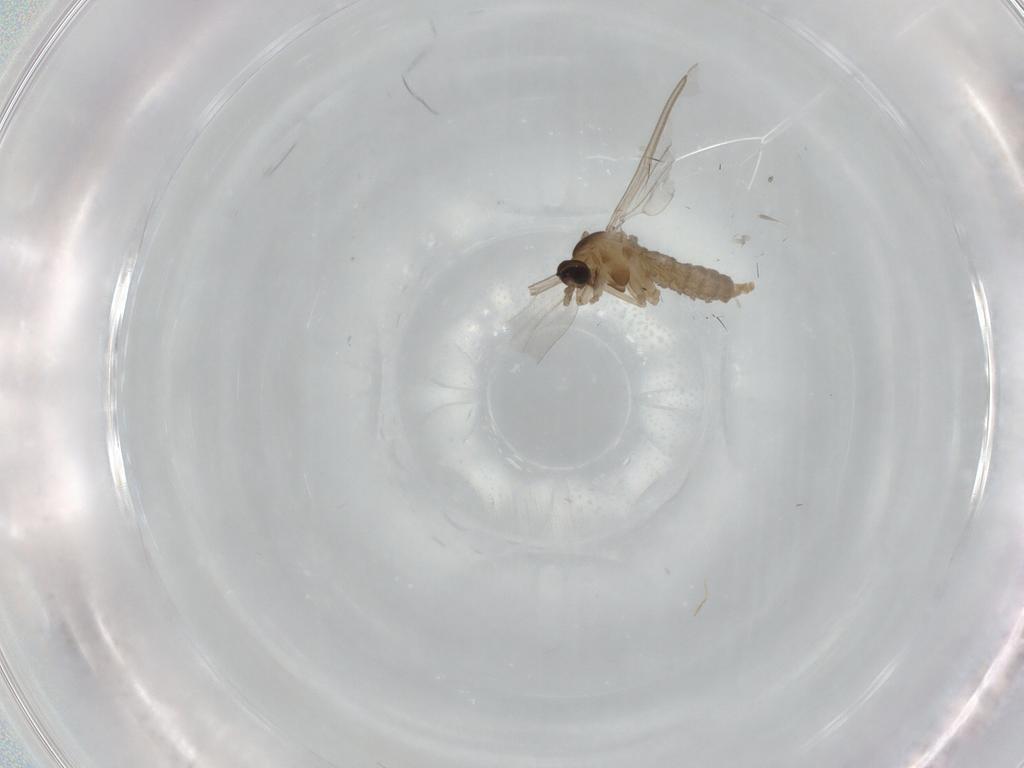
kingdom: Animalia
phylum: Arthropoda
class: Insecta
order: Diptera
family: Cecidomyiidae
